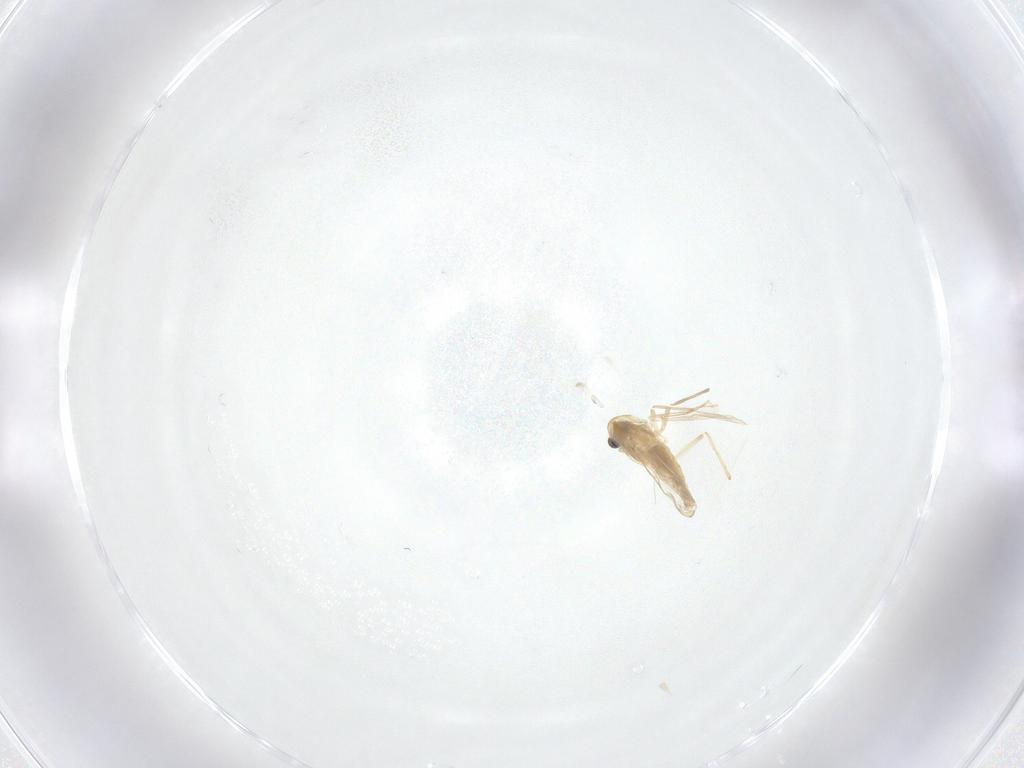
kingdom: Animalia
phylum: Arthropoda
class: Insecta
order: Diptera
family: Chironomidae
